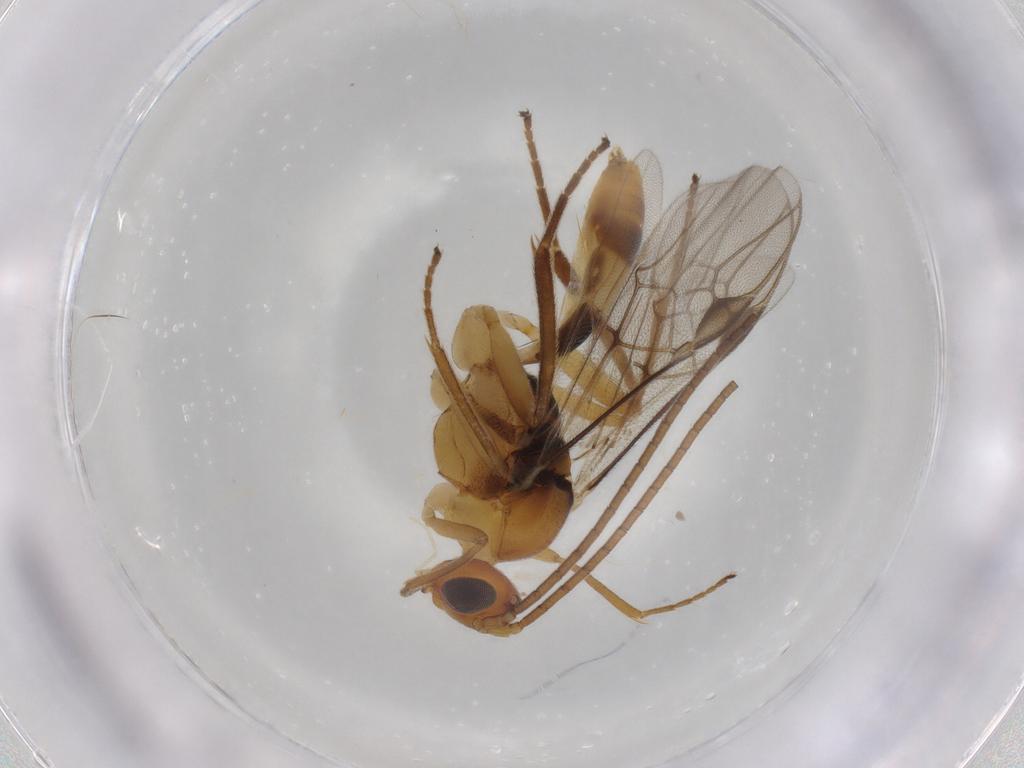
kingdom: Animalia
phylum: Arthropoda
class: Insecta
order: Hymenoptera
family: Braconidae
